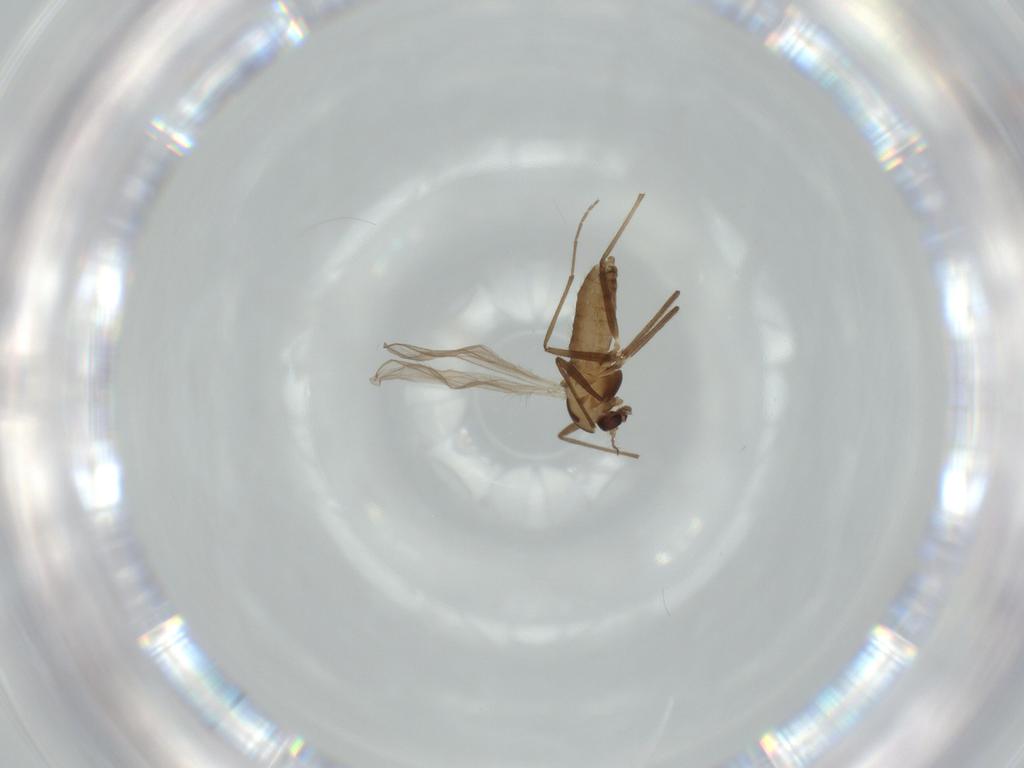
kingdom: Animalia
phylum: Arthropoda
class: Insecta
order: Diptera
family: Chironomidae
